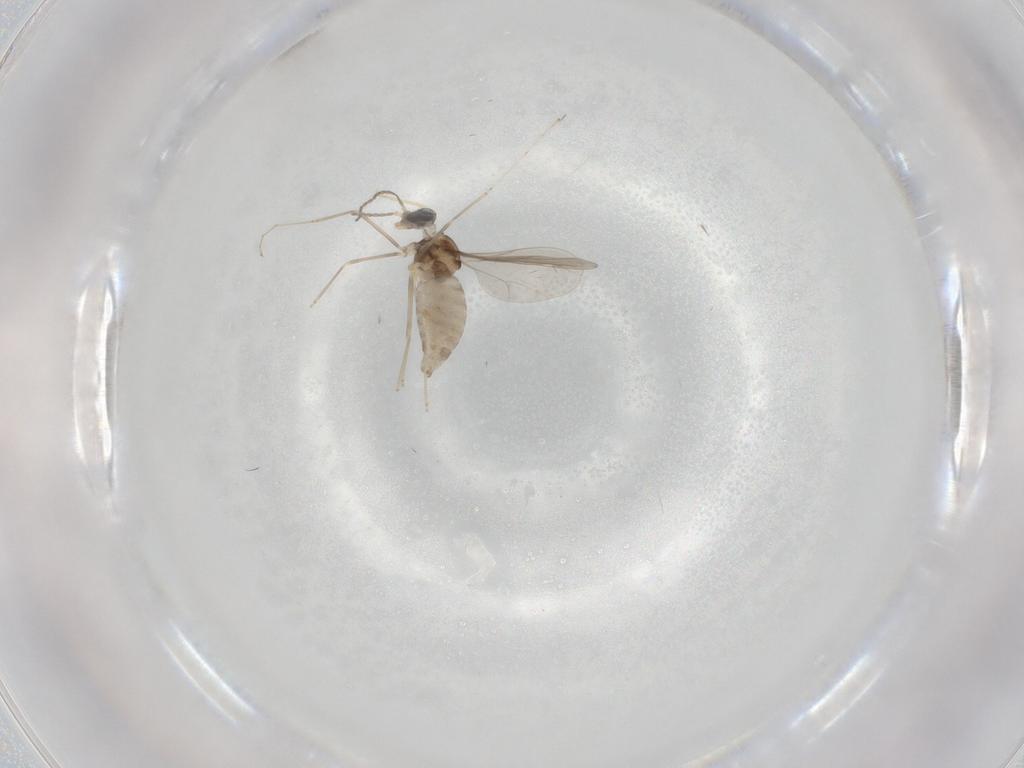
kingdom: Animalia
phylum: Arthropoda
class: Insecta
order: Diptera
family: Cecidomyiidae
